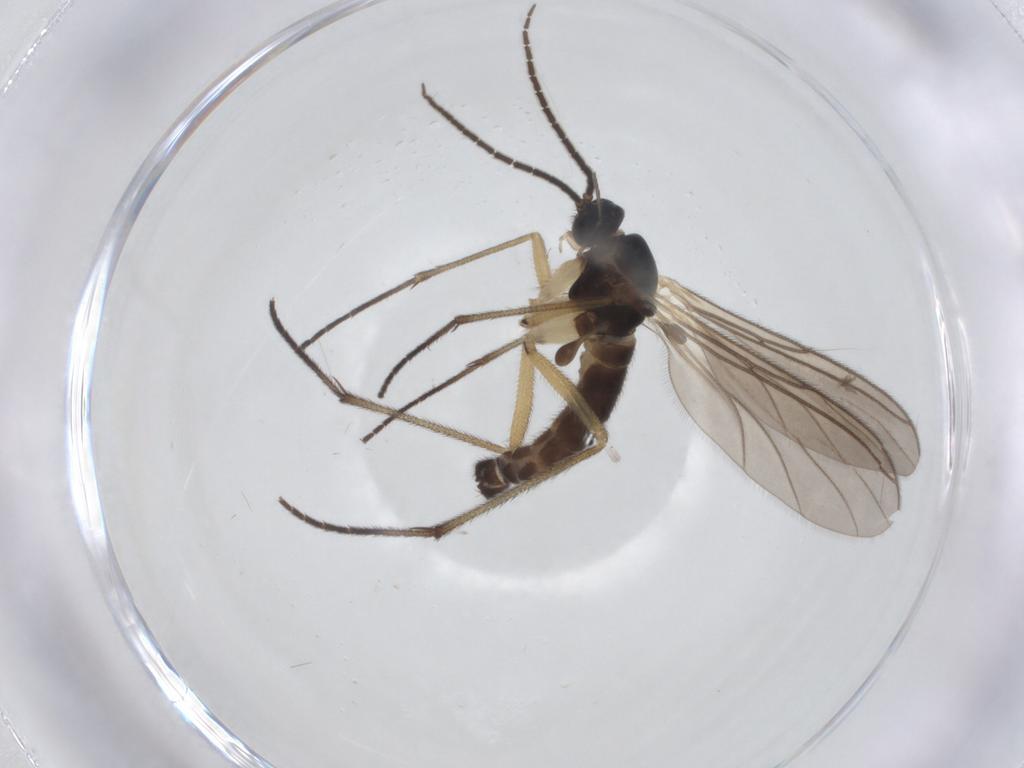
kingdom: Animalia
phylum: Arthropoda
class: Insecta
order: Diptera
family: Sciaridae
